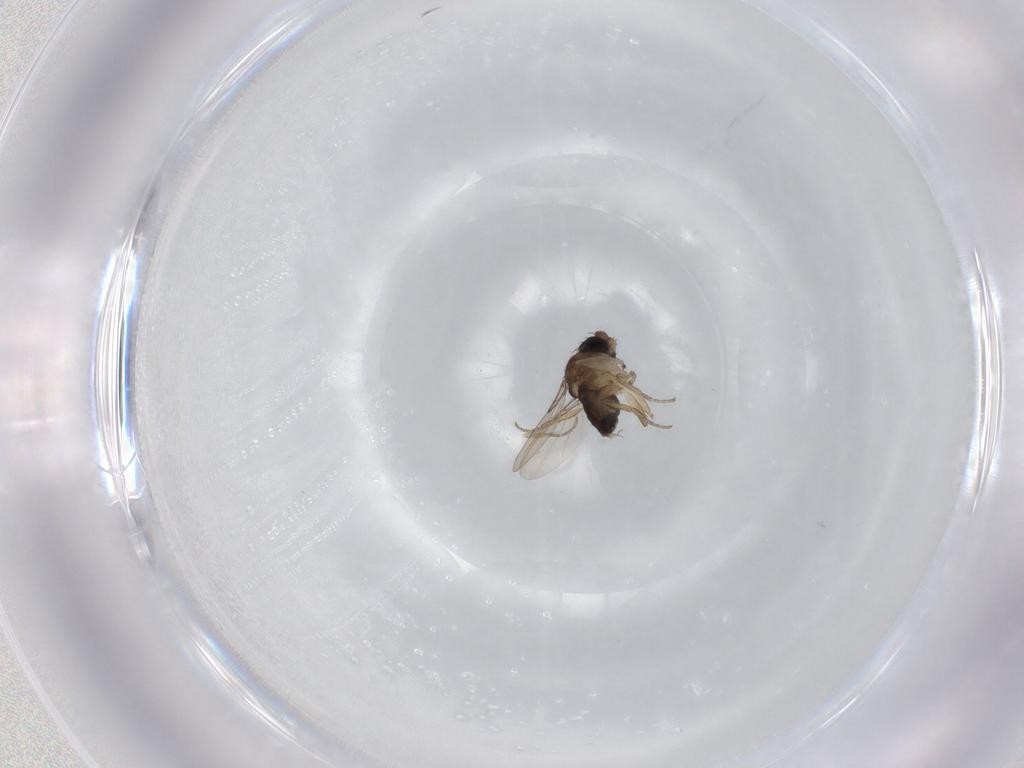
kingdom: Animalia
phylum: Arthropoda
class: Insecta
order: Diptera
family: Phoridae
